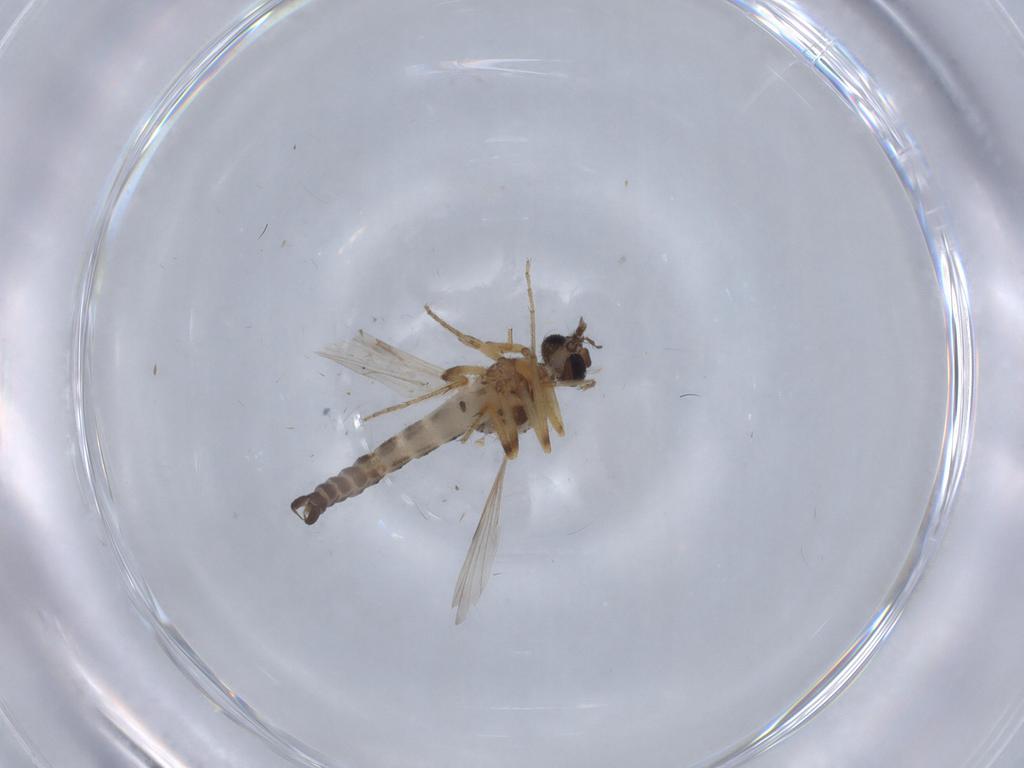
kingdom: Animalia
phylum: Arthropoda
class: Insecta
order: Diptera
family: Ceratopogonidae
